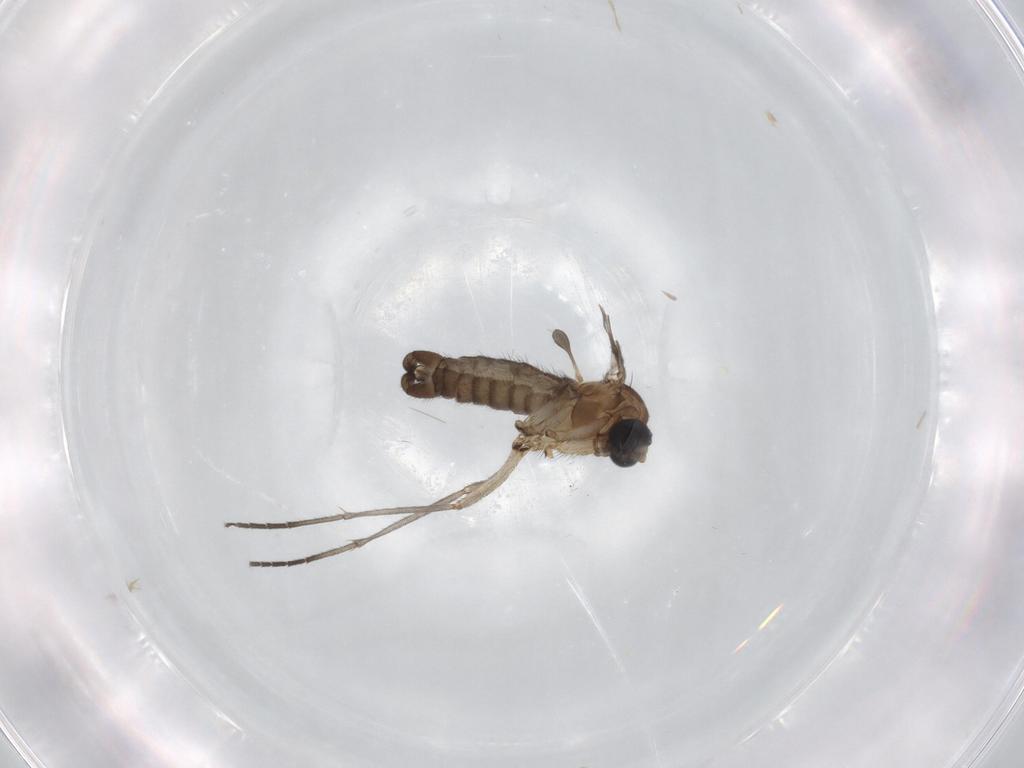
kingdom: Animalia
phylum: Arthropoda
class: Insecta
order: Diptera
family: Sciaridae
